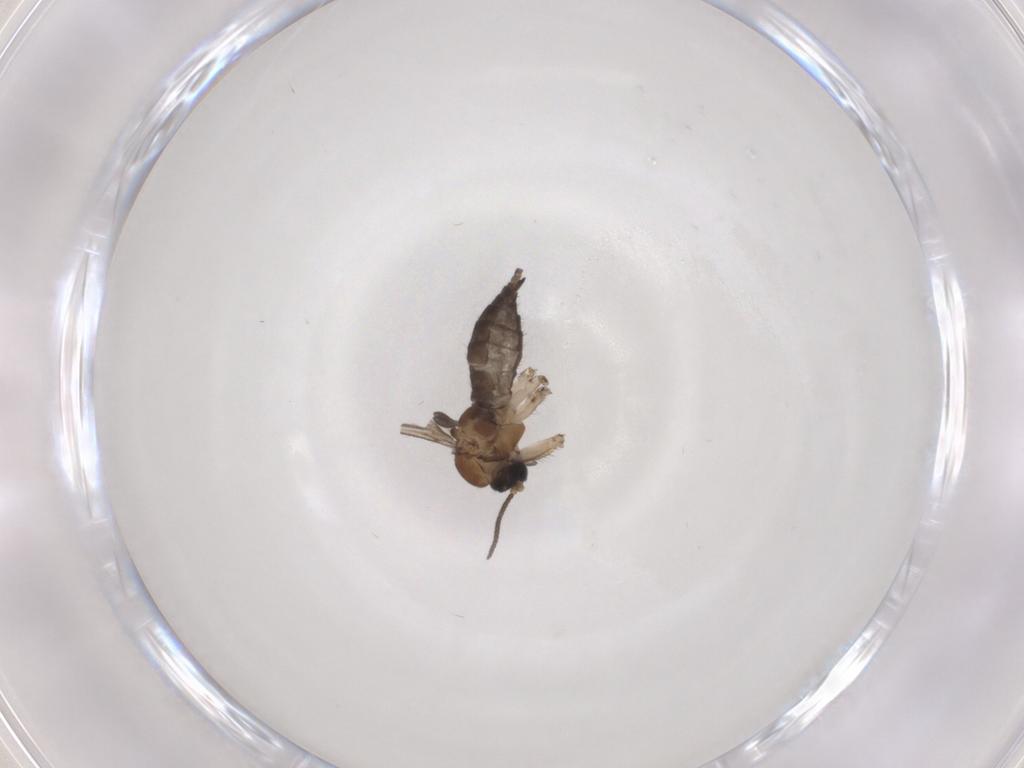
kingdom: Animalia
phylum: Arthropoda
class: Insecta
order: Diptera
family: Sciaridae
